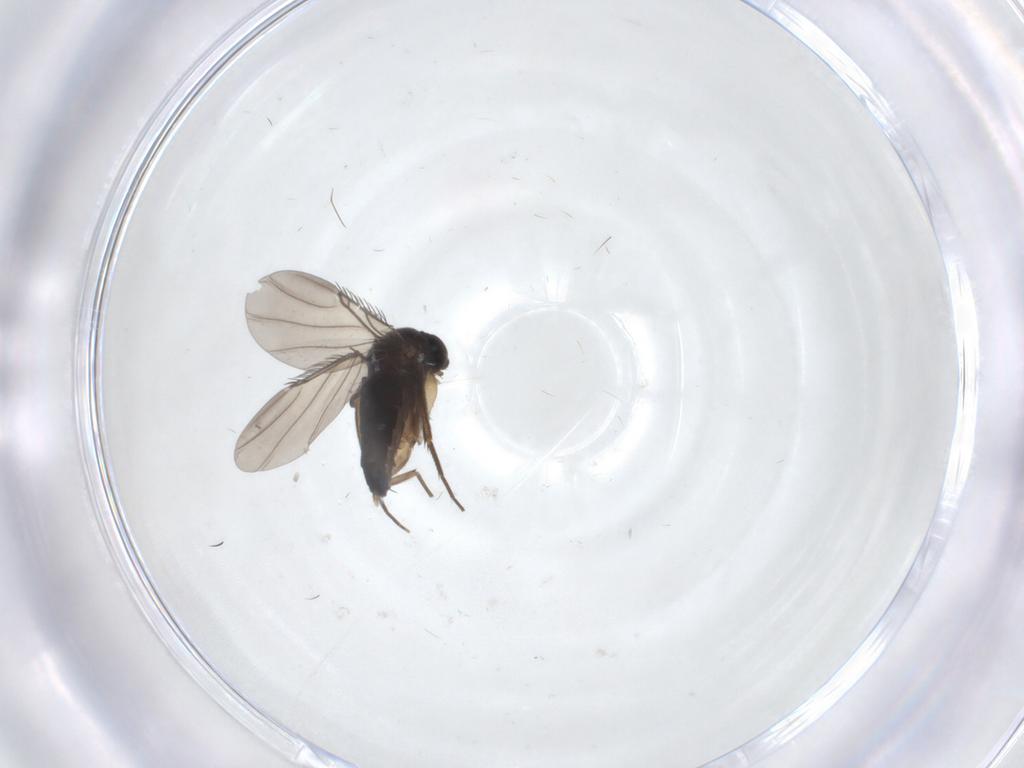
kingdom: Animalia
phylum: Arthropoda
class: Insecta
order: Diptera
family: Phoridae
